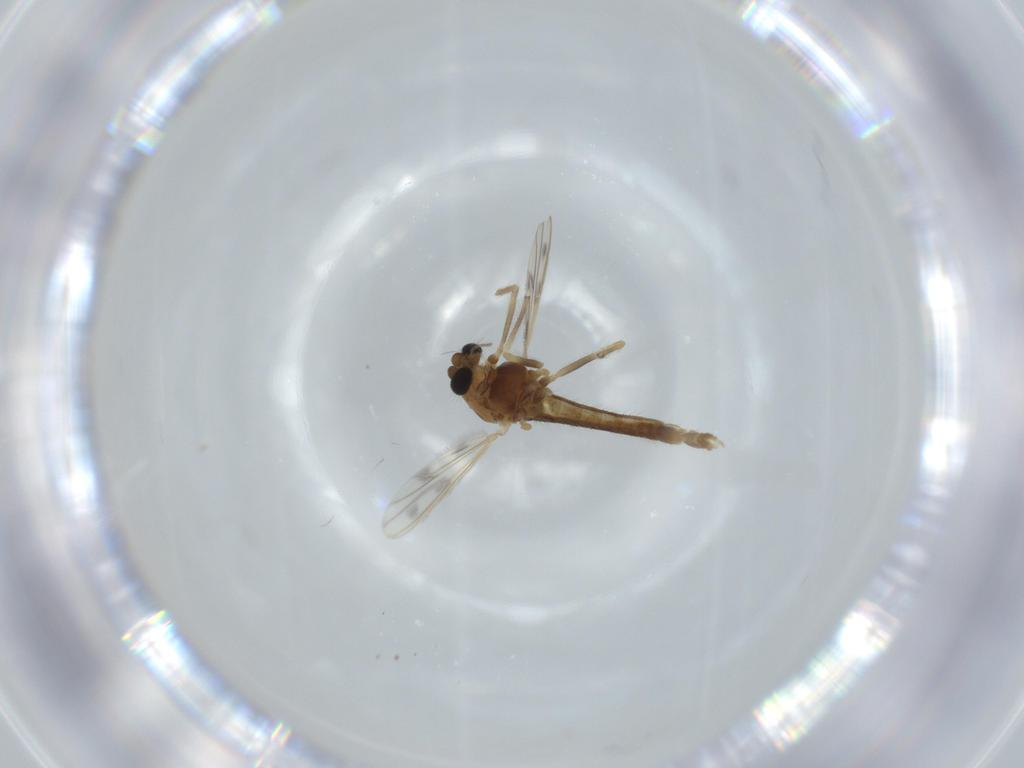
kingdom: Animalia
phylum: Arthropoda
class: Insecta
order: Diptera
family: Chironomidae
